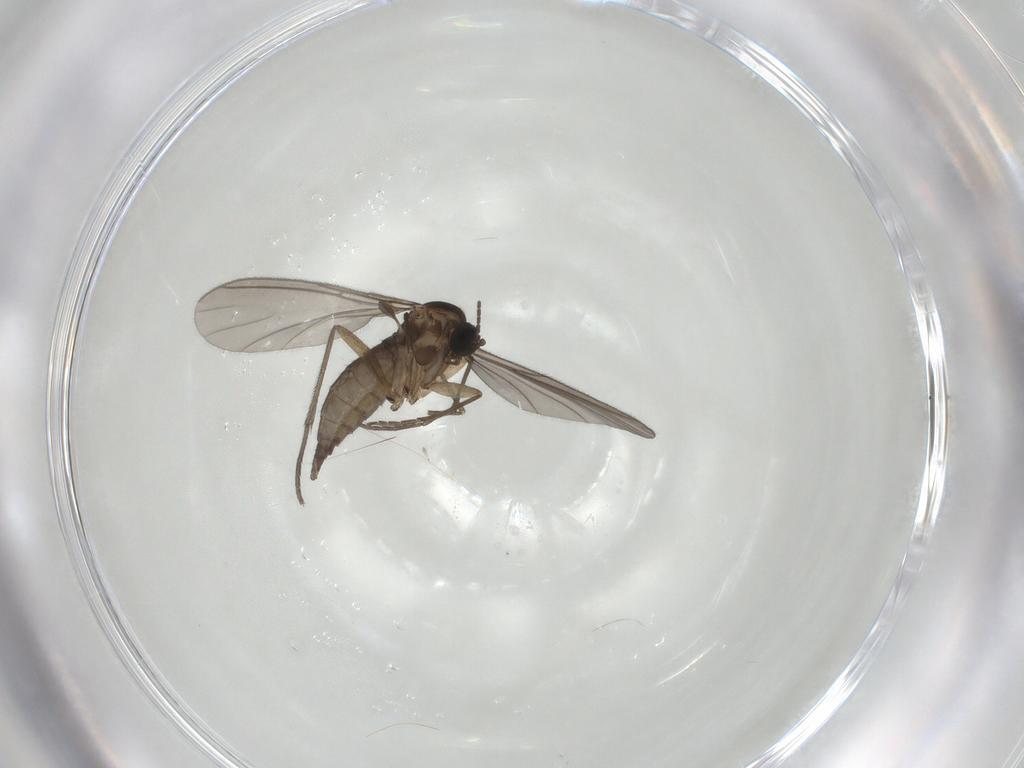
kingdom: Animalia
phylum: Arthropoda
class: Insecta
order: Diptera
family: Sciaridae
